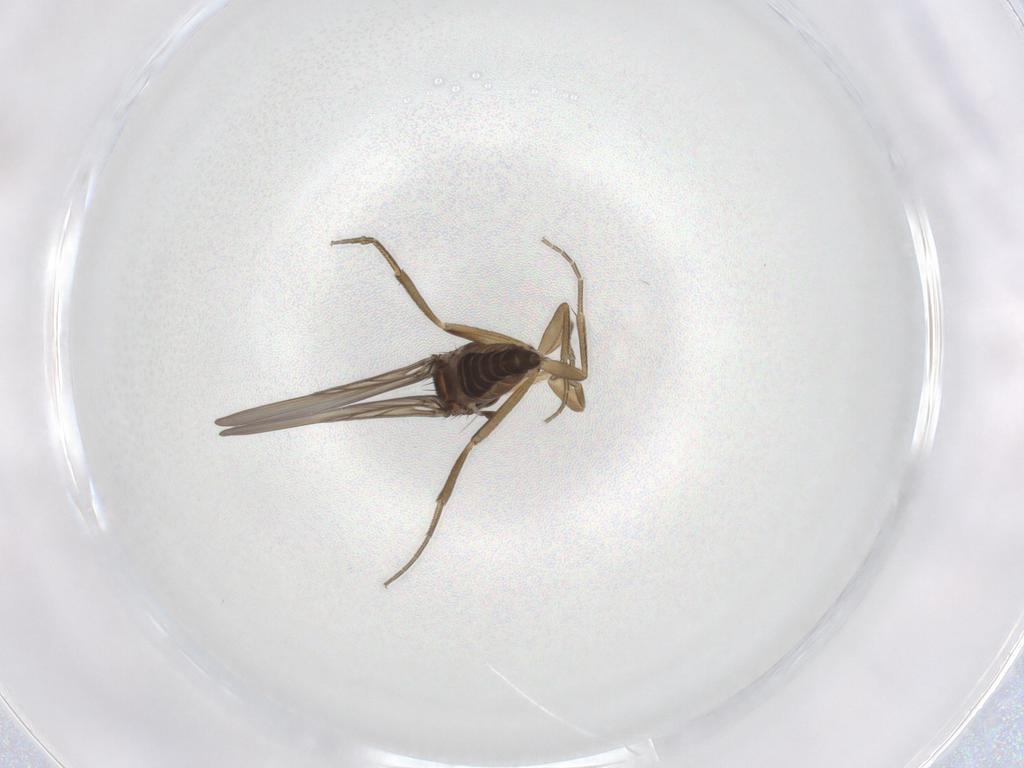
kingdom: Animalia
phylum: Arthropoda
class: Insecta
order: Diptera
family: Phoridae
